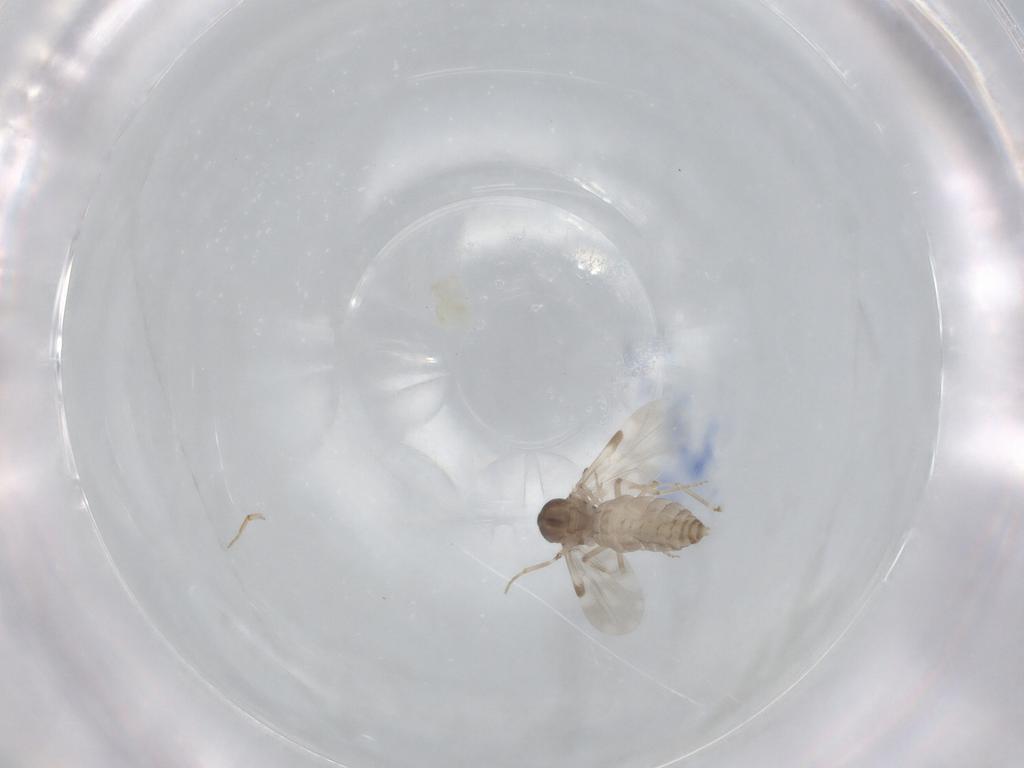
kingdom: Animalia
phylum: Arthropoda
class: Insecta
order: Diptera
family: Ceratopogonidae
